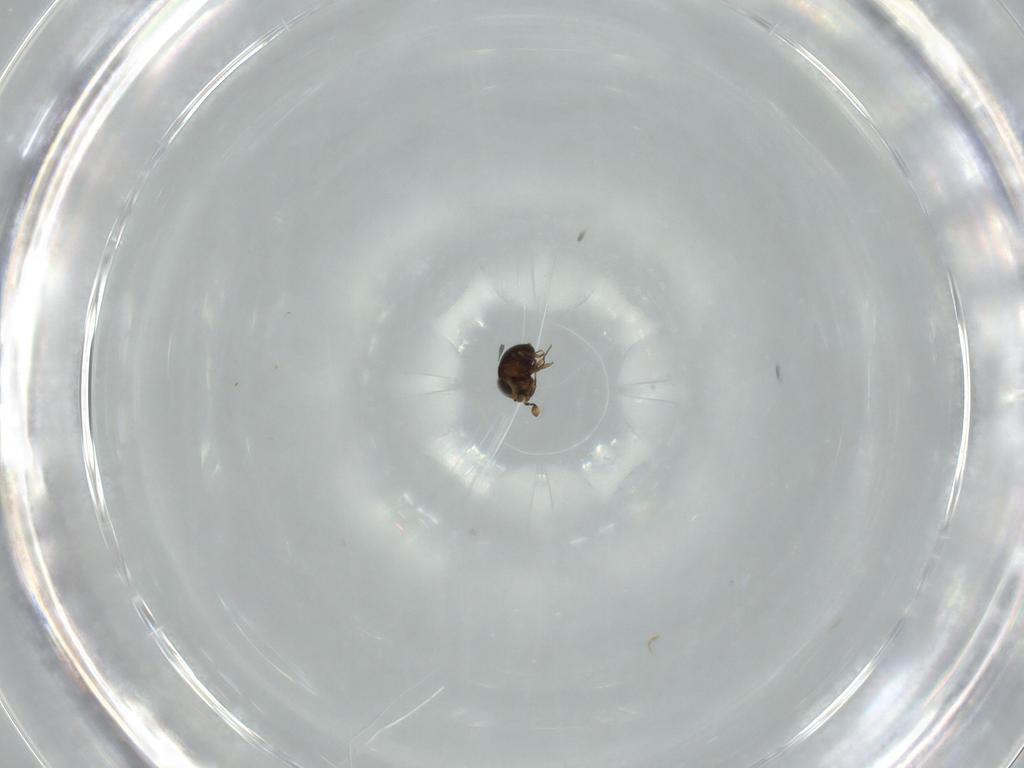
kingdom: Animalia
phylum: Arthropoda
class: Insecta
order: Hymenoptera
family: Scelionidae
